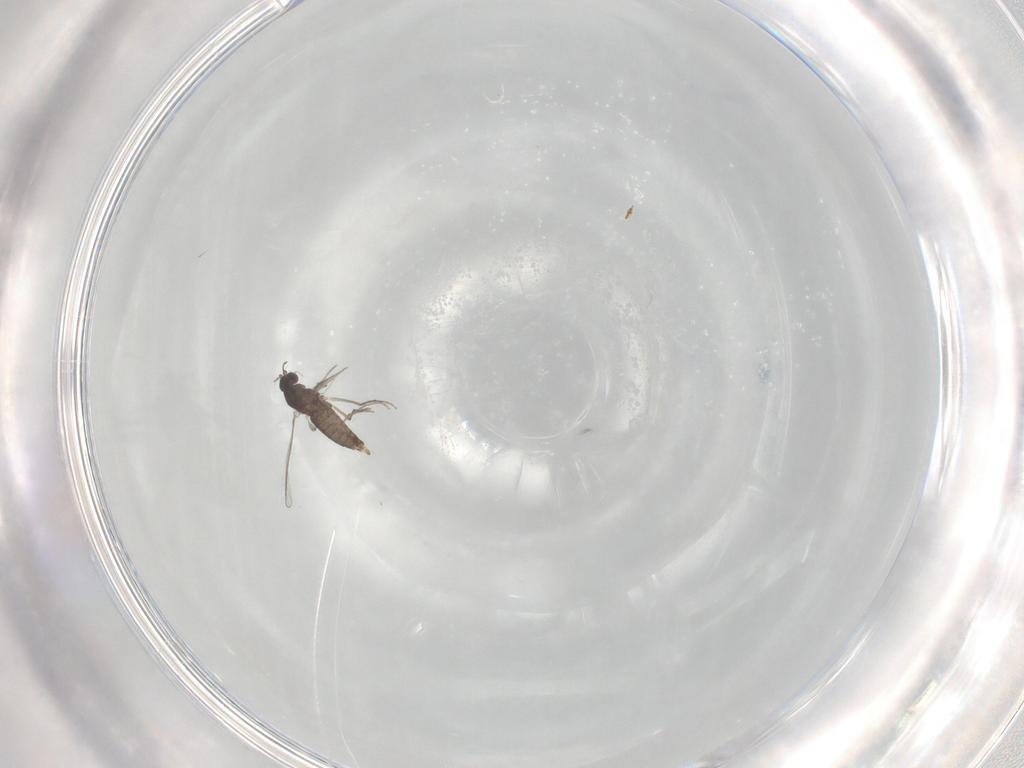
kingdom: Animalia
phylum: Arthropoda
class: Insecta
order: Diptera
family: Chironomidae
